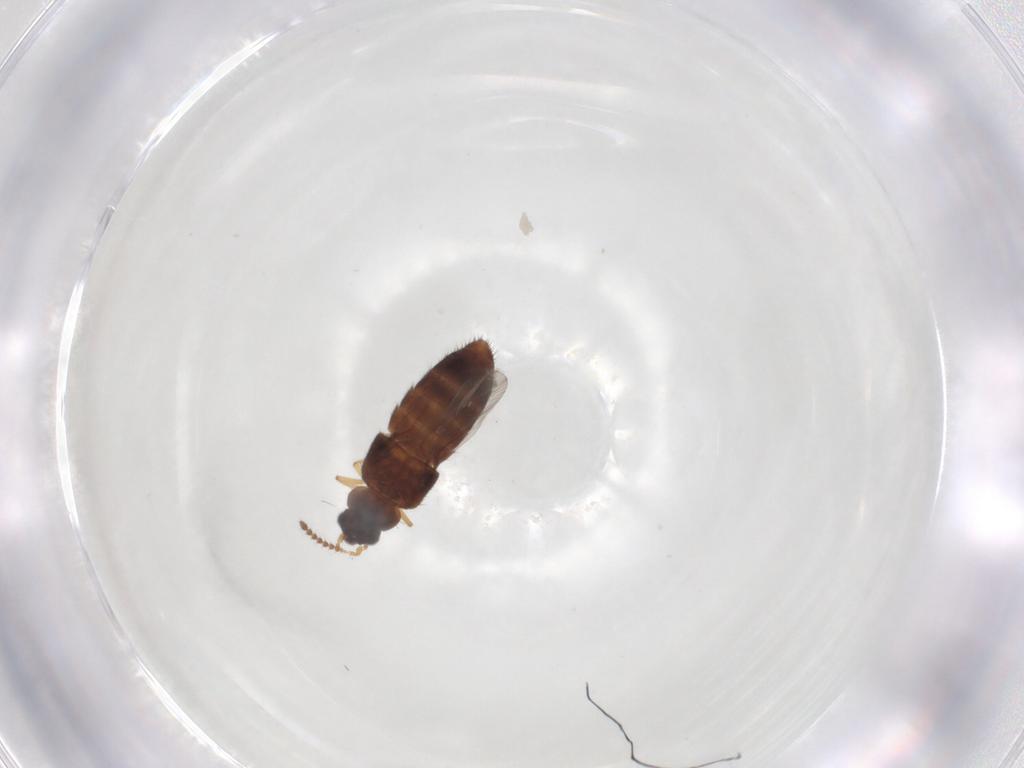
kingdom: Animalia
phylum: Arthropoda
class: Insecta
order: Coleoptera
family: Staphylinidae
